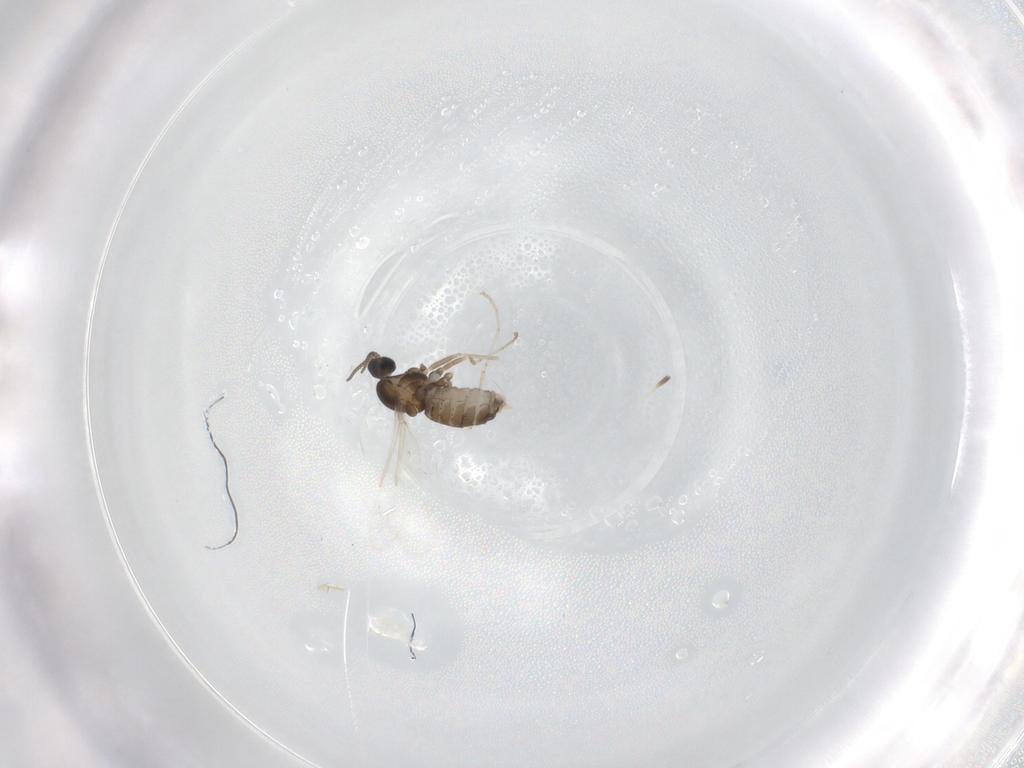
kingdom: Animalia
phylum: Arthropoda
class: Insecta
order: Diptera
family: Cecidomyiidae
